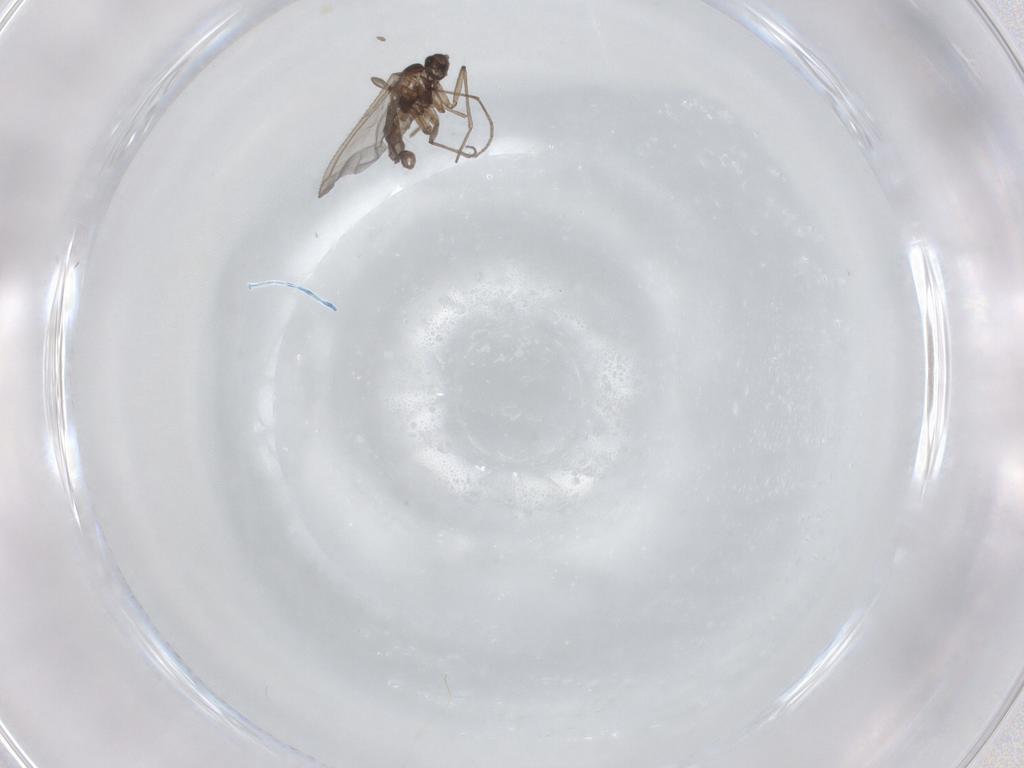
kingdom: Animalia
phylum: Arthropoda
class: Insecta
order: Diptera
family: Sciaridae
